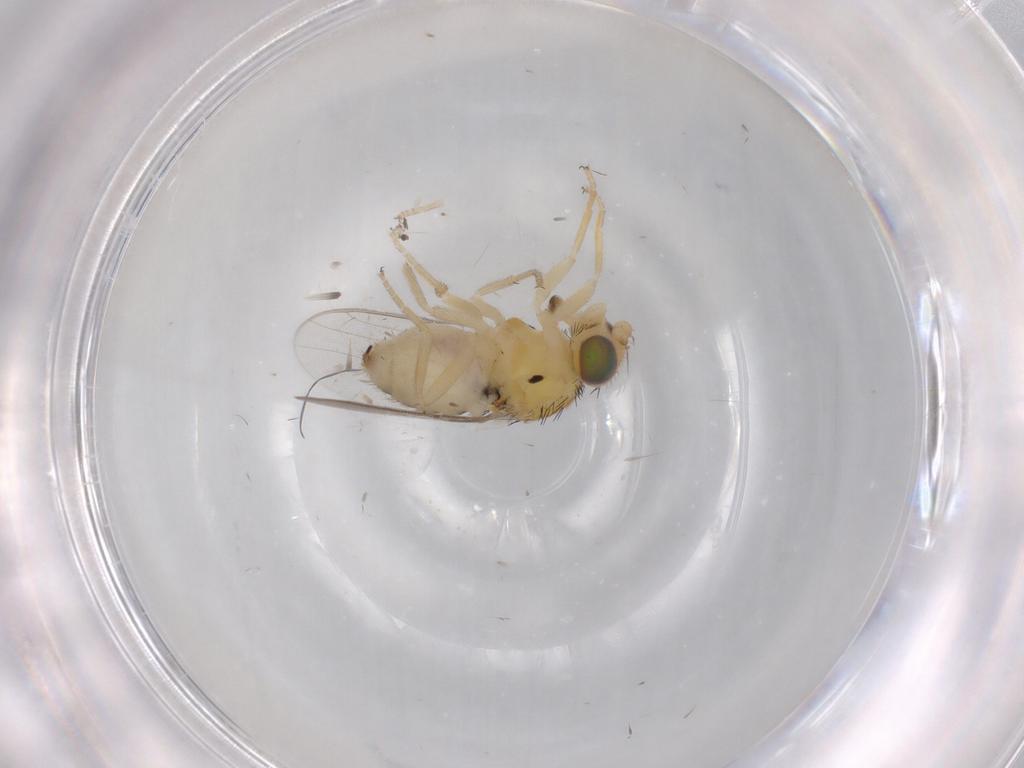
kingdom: Animalia
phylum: Arthropoda
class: Insecta
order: Diptera
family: Chloropidae
